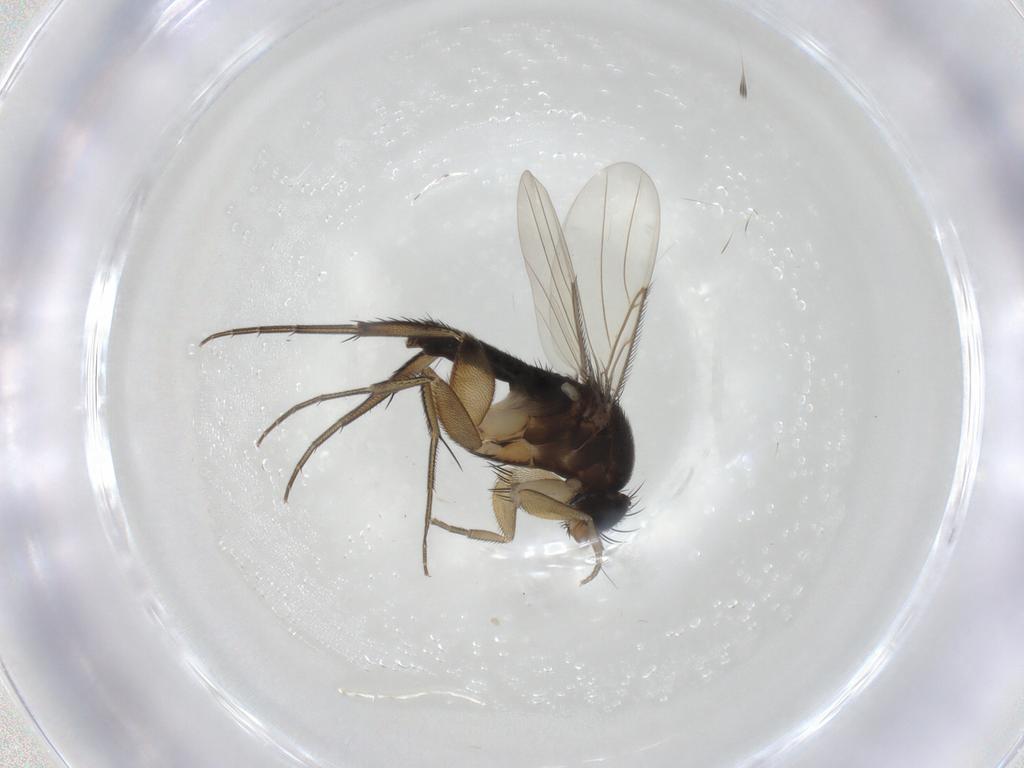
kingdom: Animalia
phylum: Arthropoda
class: Insecta
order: Diptera
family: Phoridae
